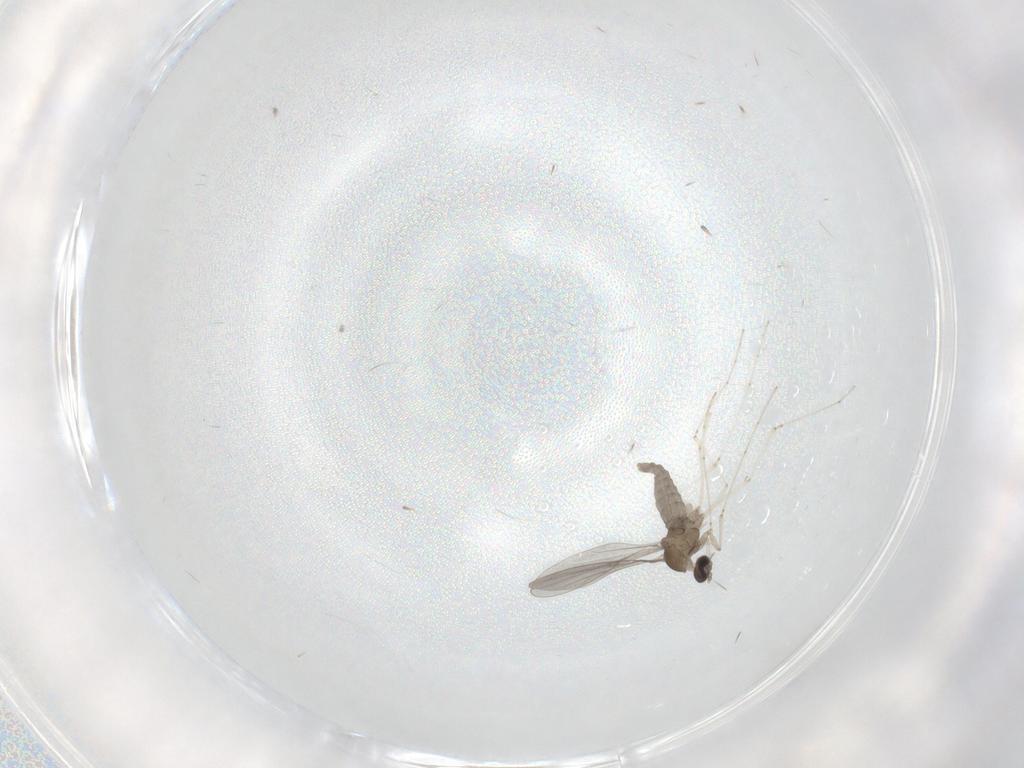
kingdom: Animalia
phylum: Arthropoda
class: Insecta
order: Diptera
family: Cecidomyiidae
